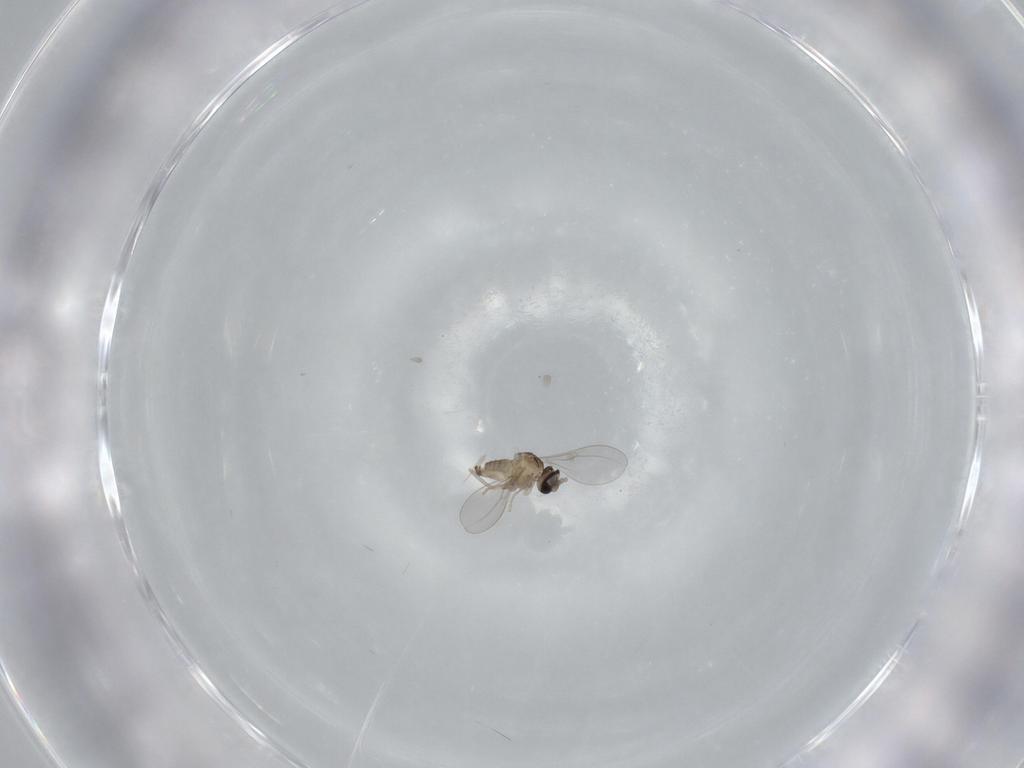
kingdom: Animalia
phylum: Arthropoda
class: Insecta
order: Diptera
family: Cecidomyiidae
